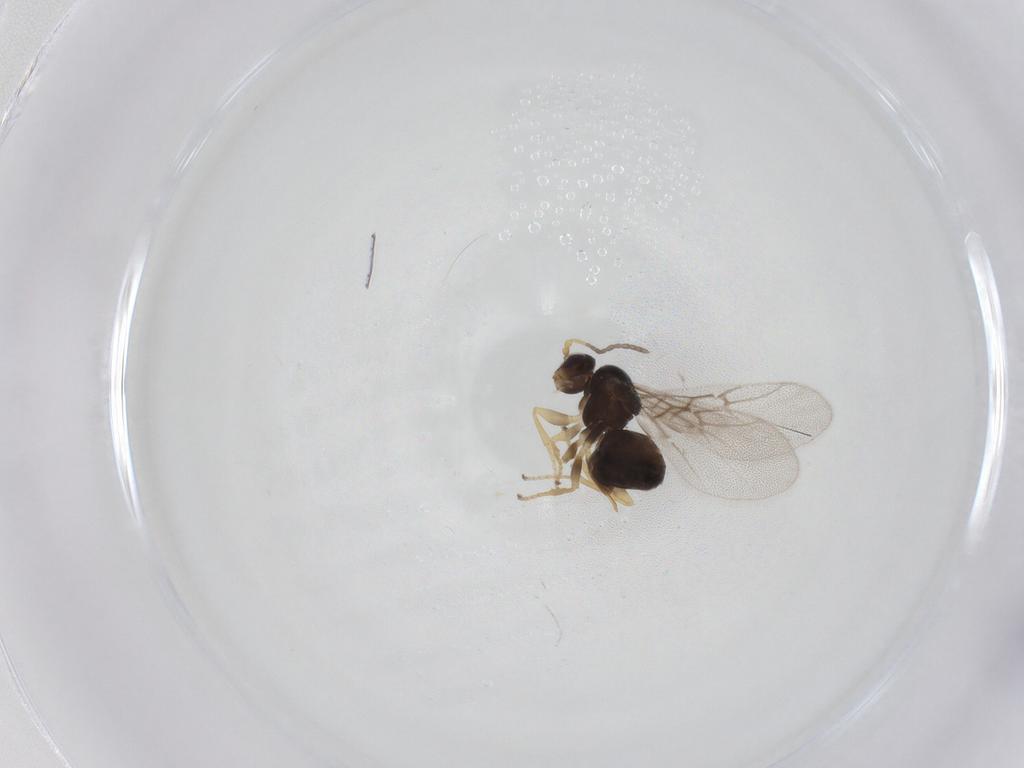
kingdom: Animalia
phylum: Arthropoda
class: Insecta
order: Hymenoptera
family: Cynipidae
